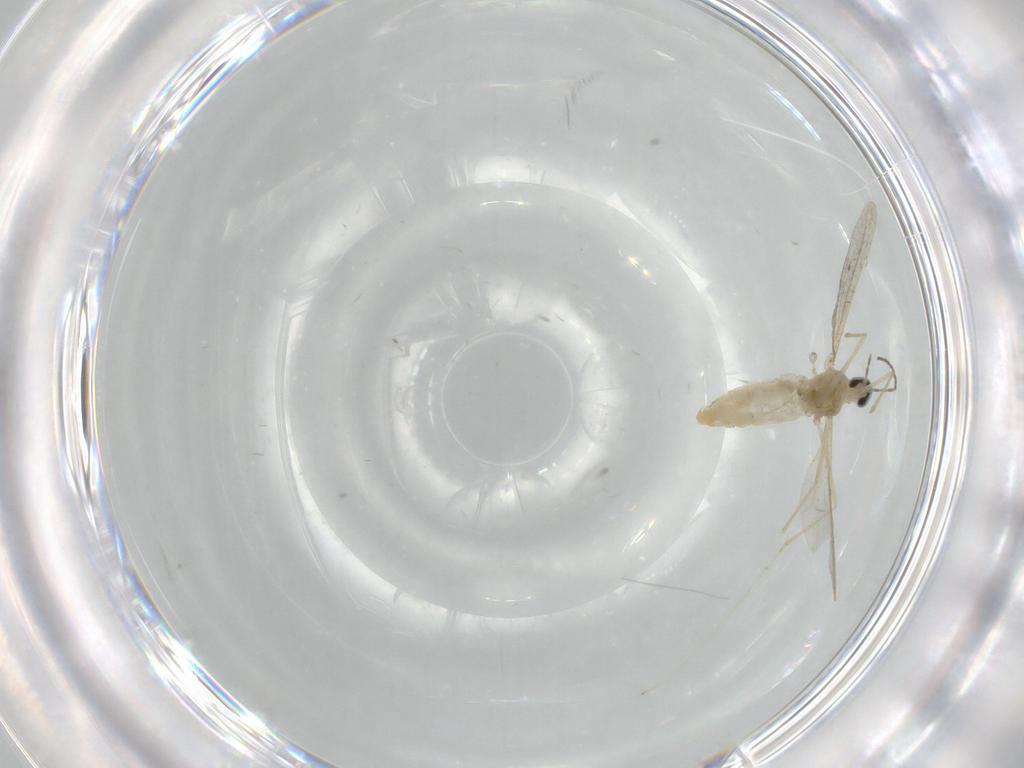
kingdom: Animalia
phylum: Arthropoda
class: Insecta
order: Diptera
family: Cecidomyiidae
